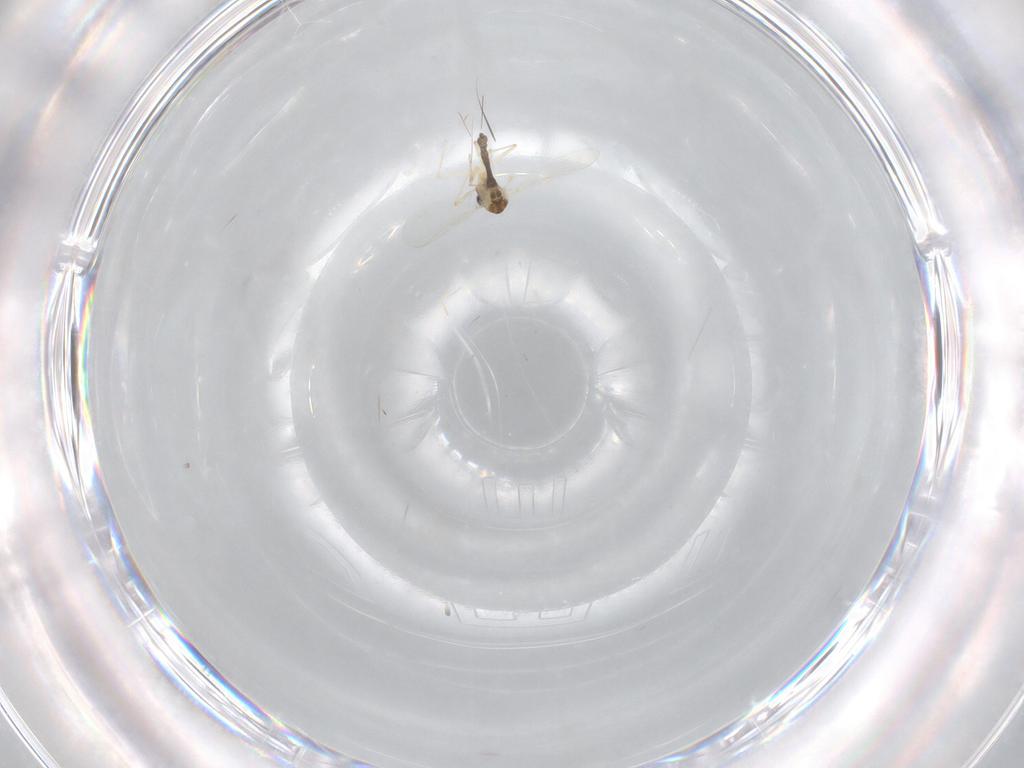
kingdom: Animalia
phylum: Arthropoda
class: Insecta
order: Diptera
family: Chironomidae
